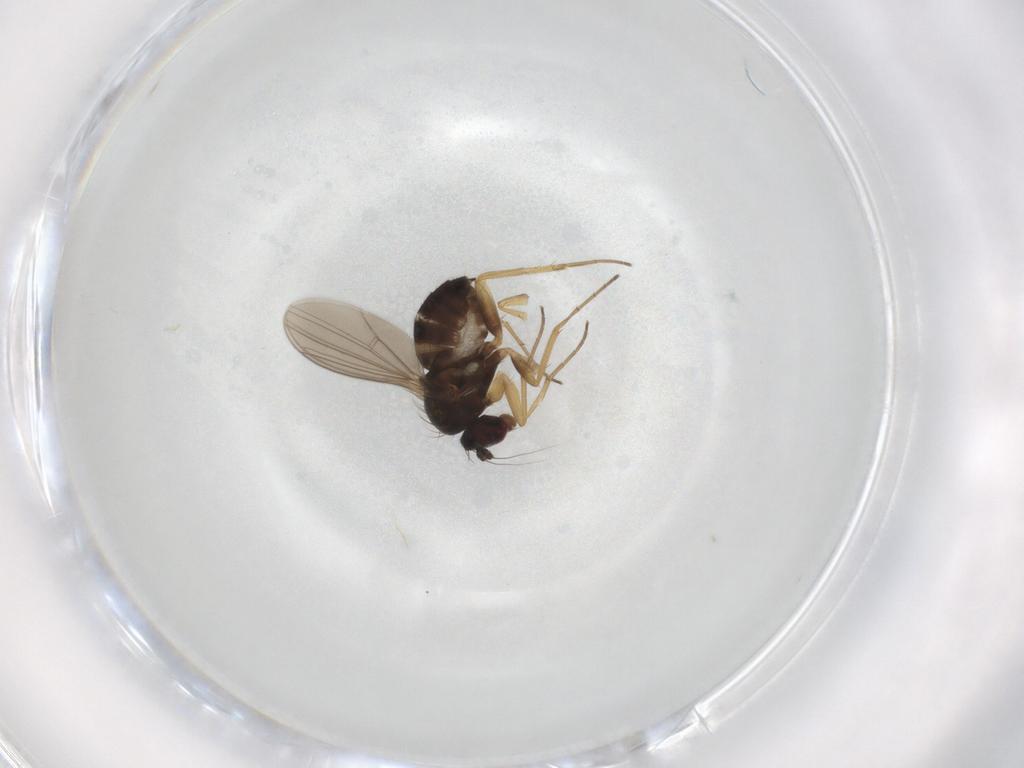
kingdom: Animalia
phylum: Arthropoda
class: Insecta
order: Diptera
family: Dolichopodidae
